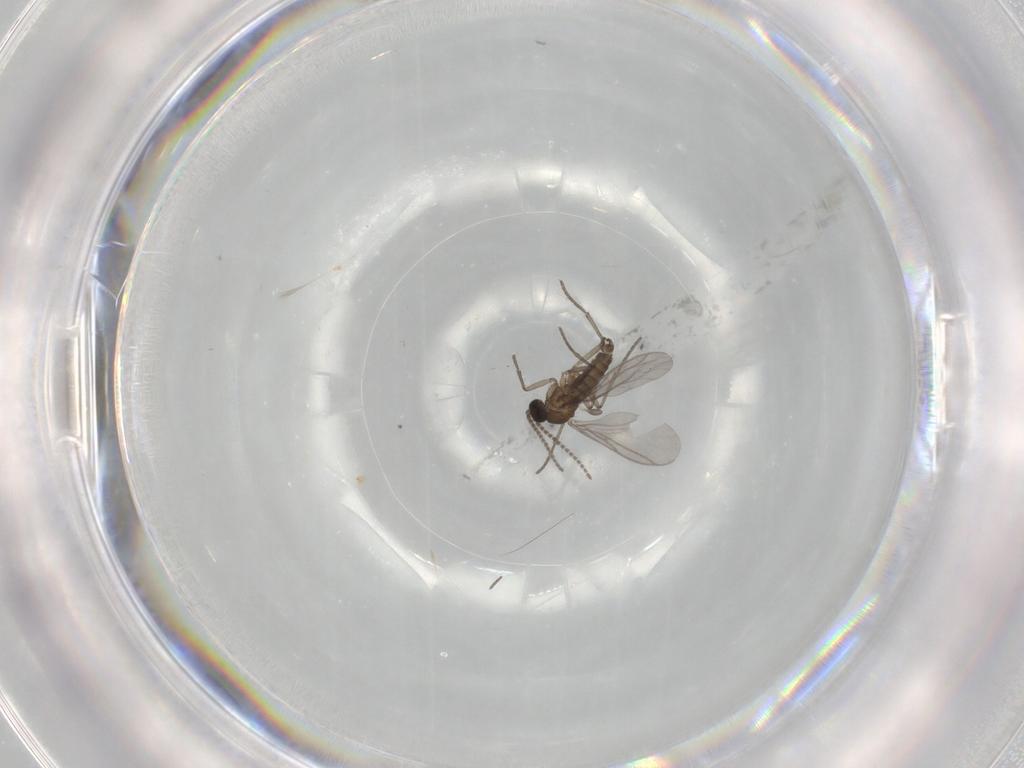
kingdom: Animalia
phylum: Arthropoda
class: Insecta
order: Diptera
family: Sciaridae
